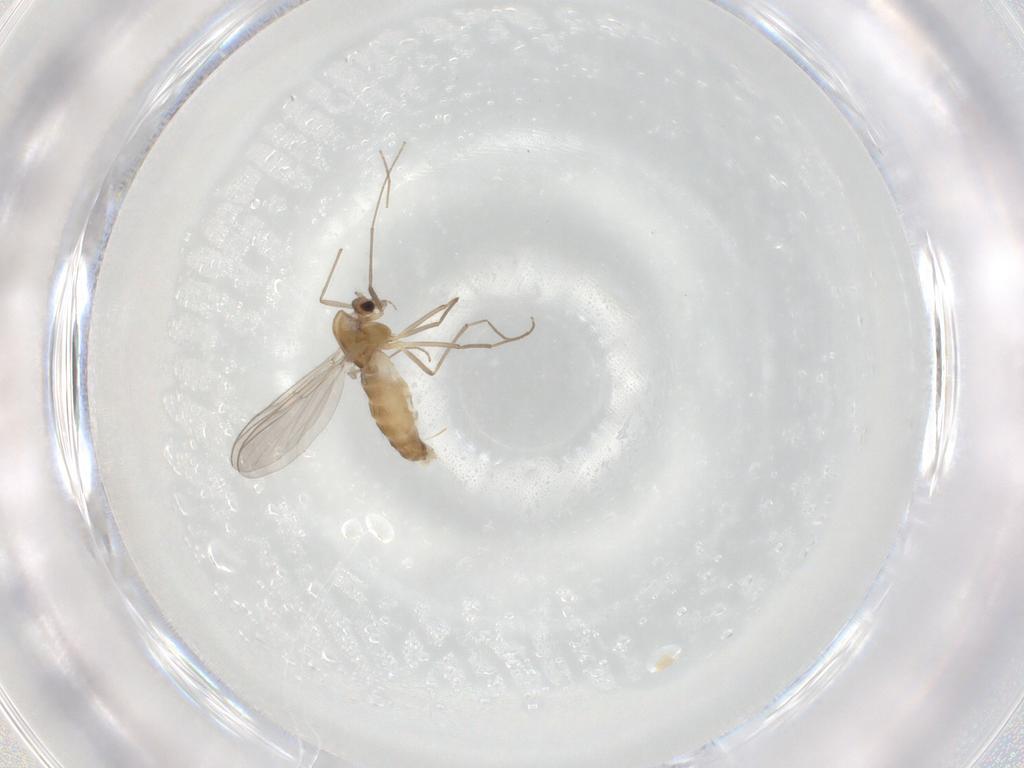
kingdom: Animalia
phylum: Arthropoda
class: Insecta
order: Diptera
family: Chironomidae
